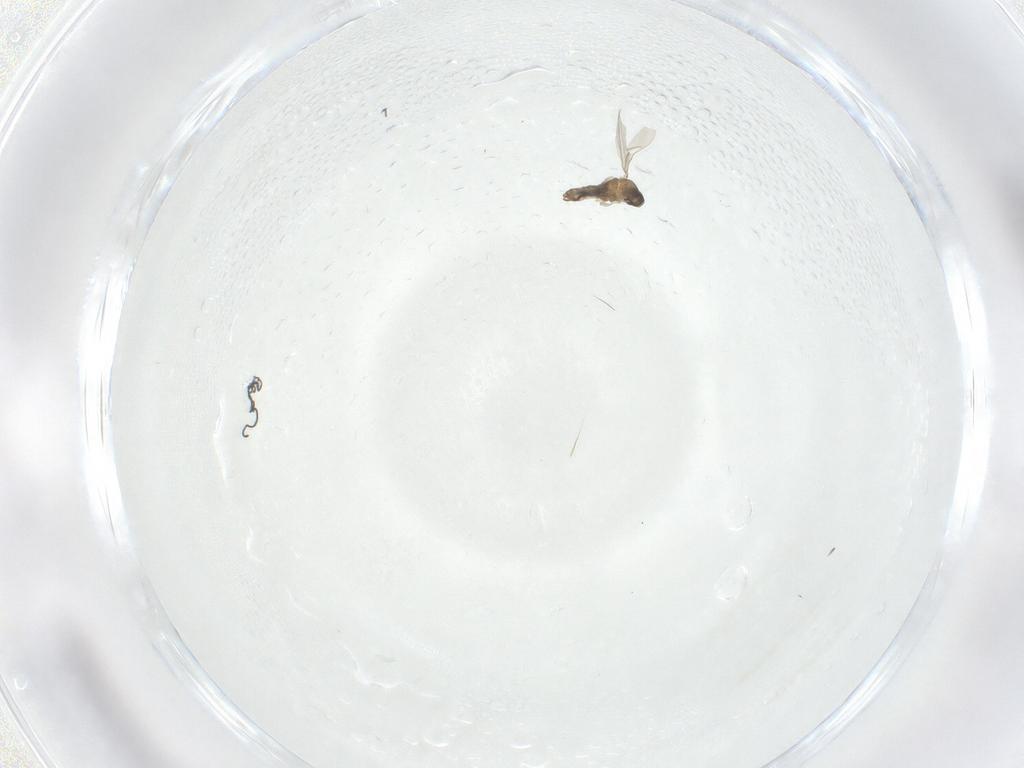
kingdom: Animalia
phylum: Arthropoda
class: Insecta
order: Diptera
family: Cecidomyiidae
